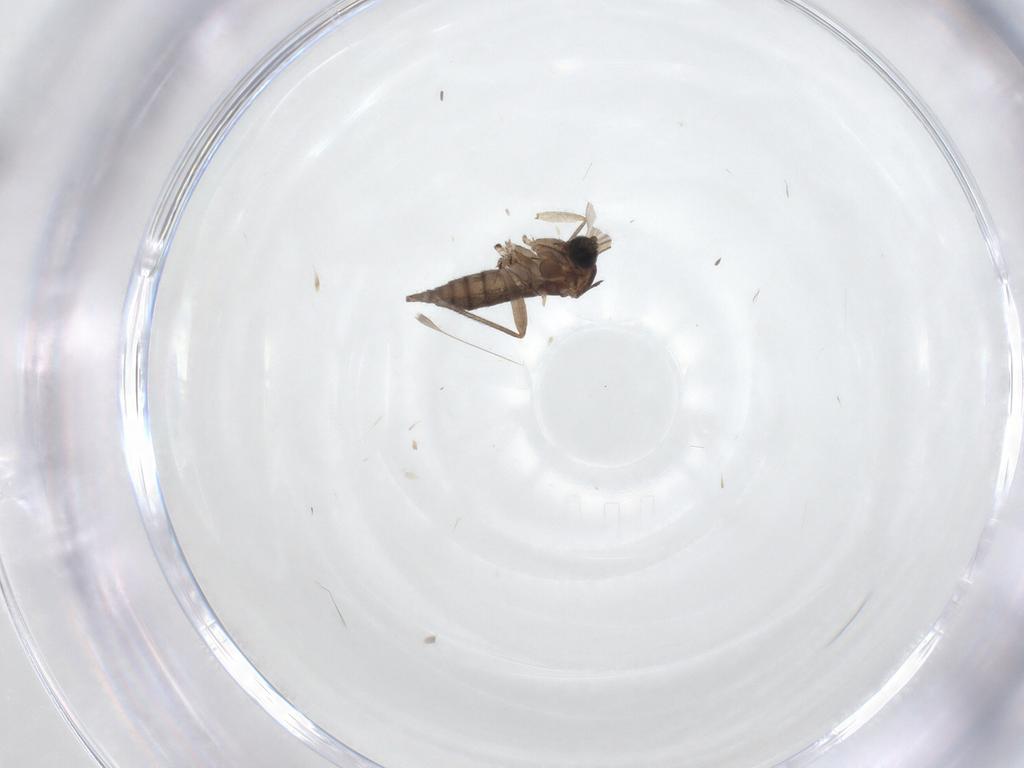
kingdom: Animalia
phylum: Arthropoda
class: Insecta
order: Diptera
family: Sciaridae
